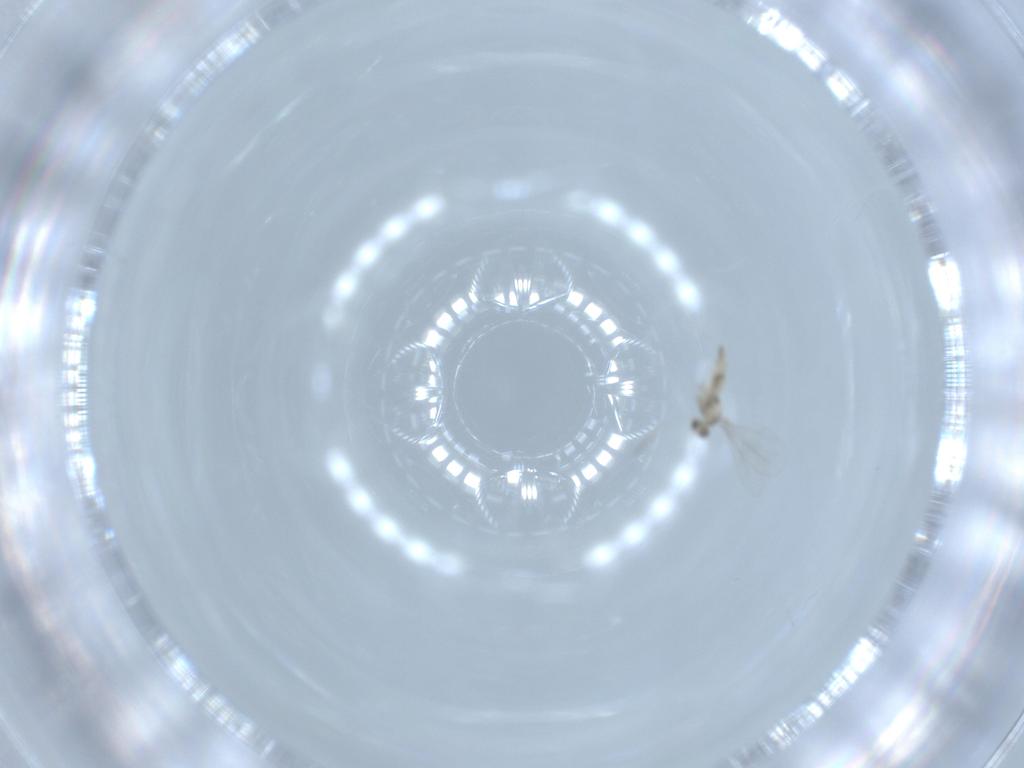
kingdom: Animalia
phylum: Arthropoda
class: Insecta
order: Diptera
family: Cecidomyiidae
